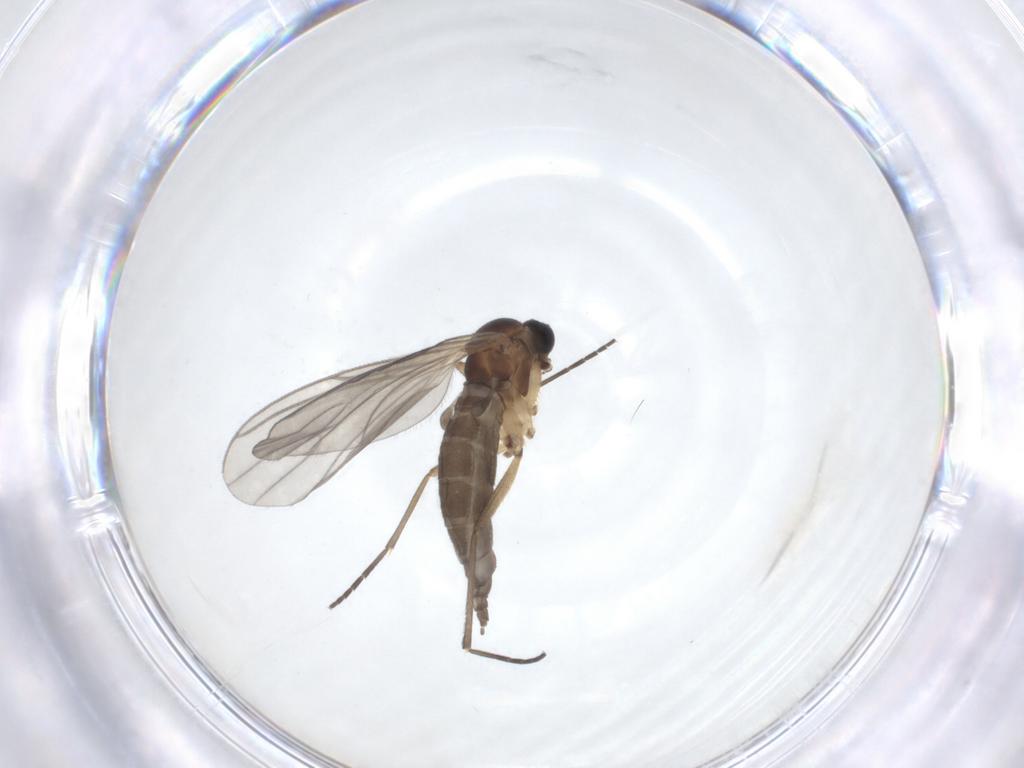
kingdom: Animalia
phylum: Arthropoda
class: Insecta
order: Diptera
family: Sciaridae
